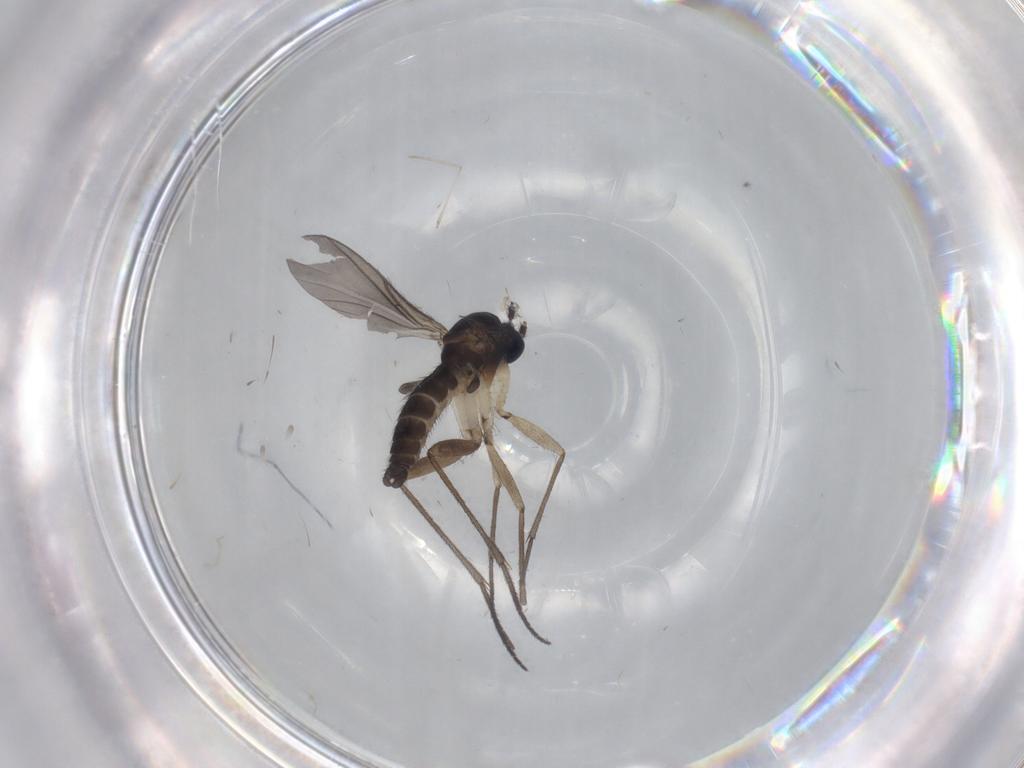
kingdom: Animalia
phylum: Arthropoda
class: Insecta
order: Diptera
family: Sciaridae
